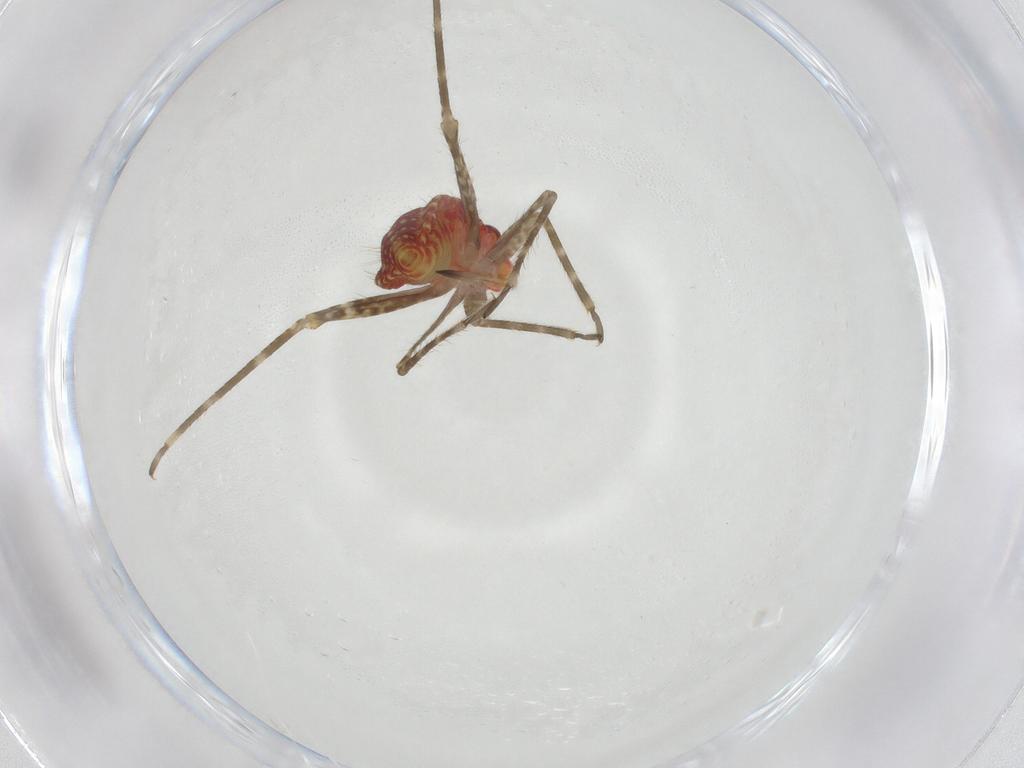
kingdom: Animalia
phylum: Arthropoda
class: Insecta
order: Hemiptera
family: Miridae
